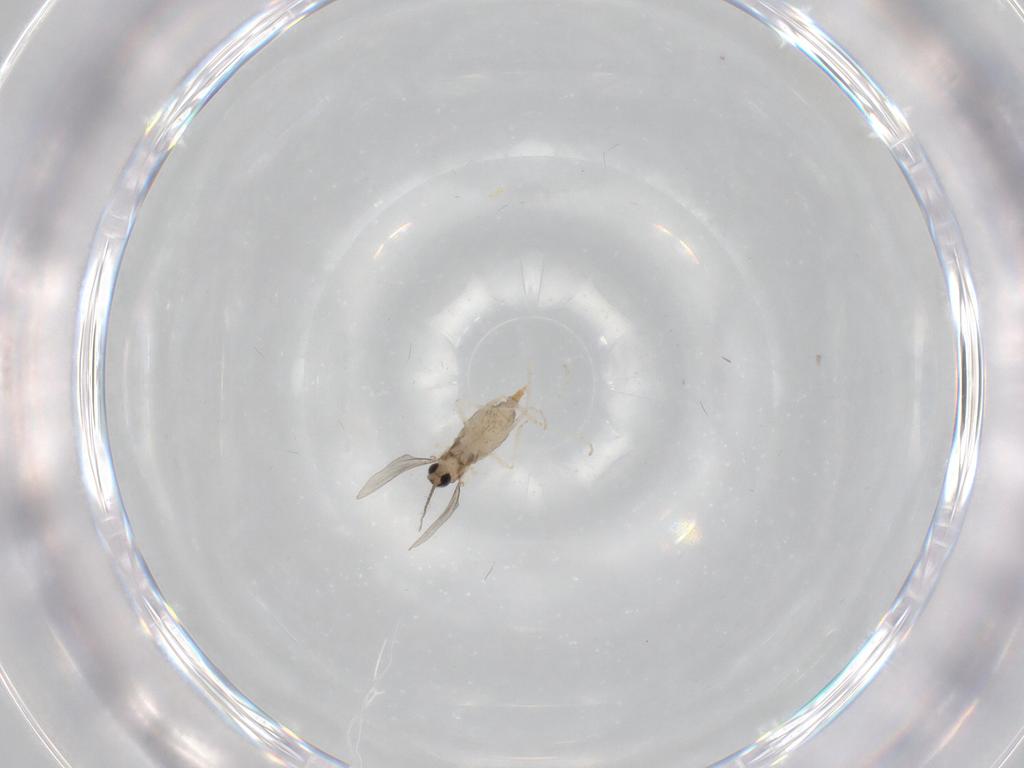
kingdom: Animalia
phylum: Arthropoda
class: Insecta
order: Diptera
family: Cecidomyiidae
